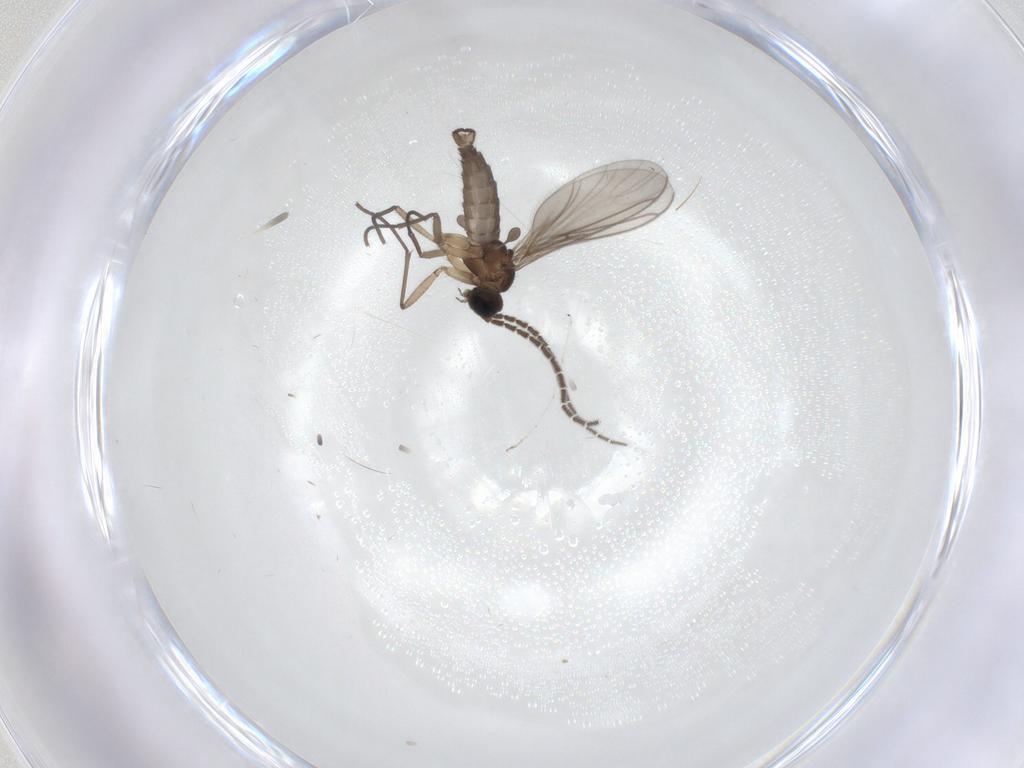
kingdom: Animalia
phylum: Arthropoda
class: Insecta
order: Diptera
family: Sciaridae
